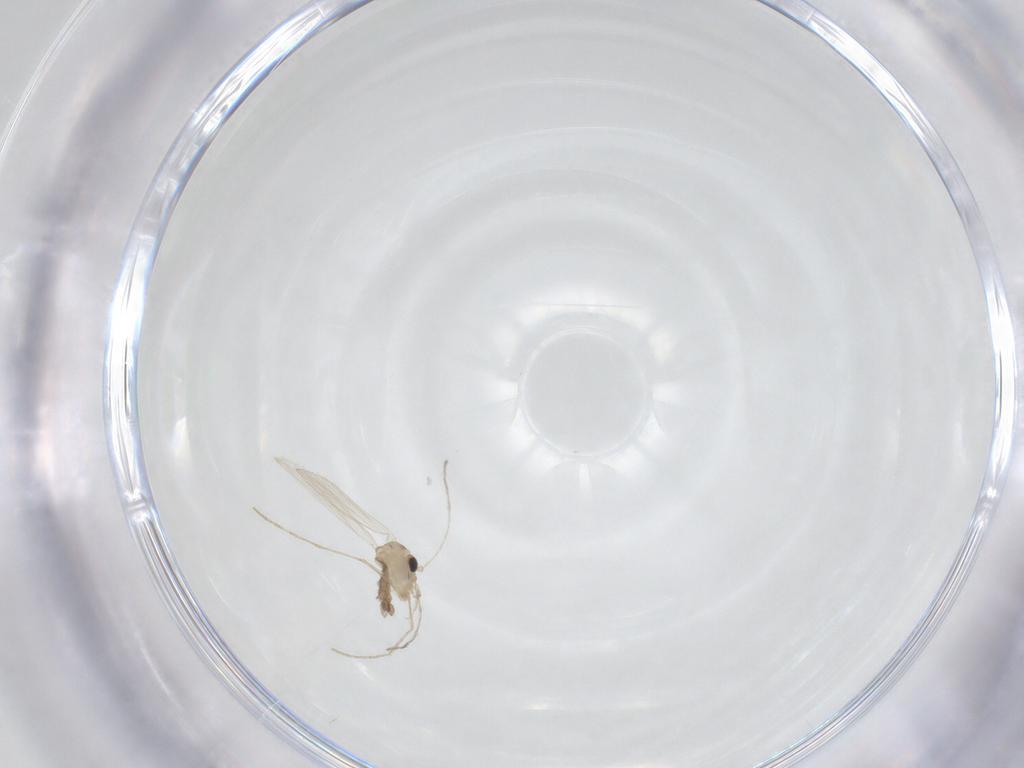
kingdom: Animalia
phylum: Arthropoda
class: Insecta
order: Diptera
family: Psychodidae
